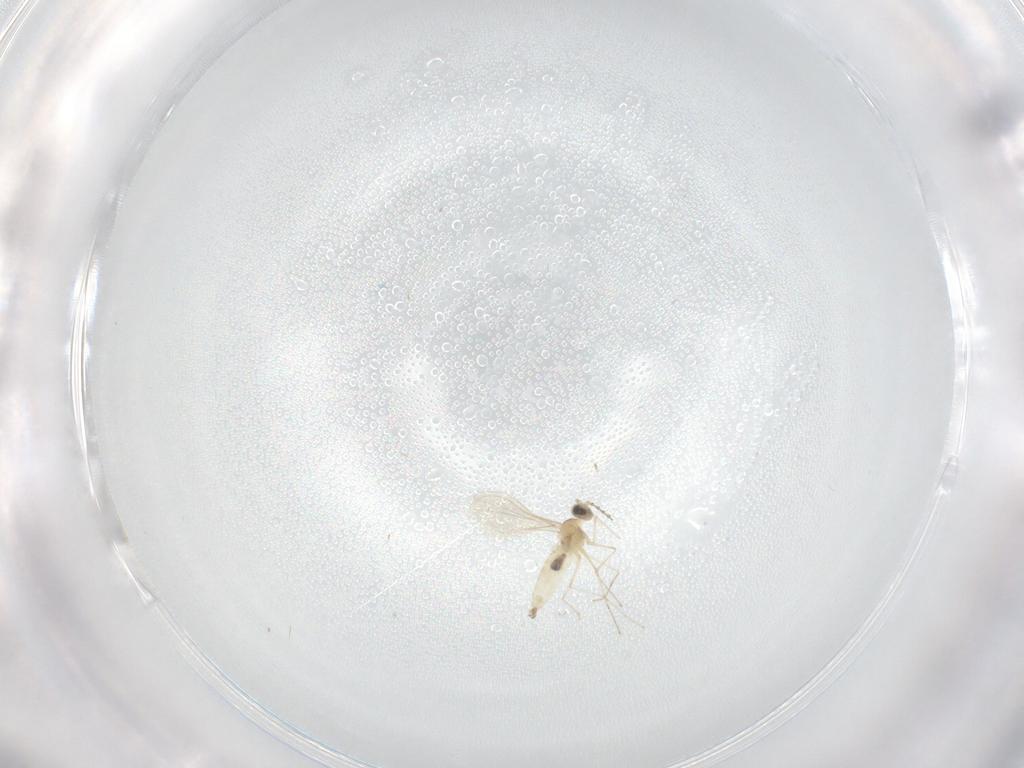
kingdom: Animalia
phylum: Arthropoda
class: Insecta
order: Diptera
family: Cecidomyiidae
